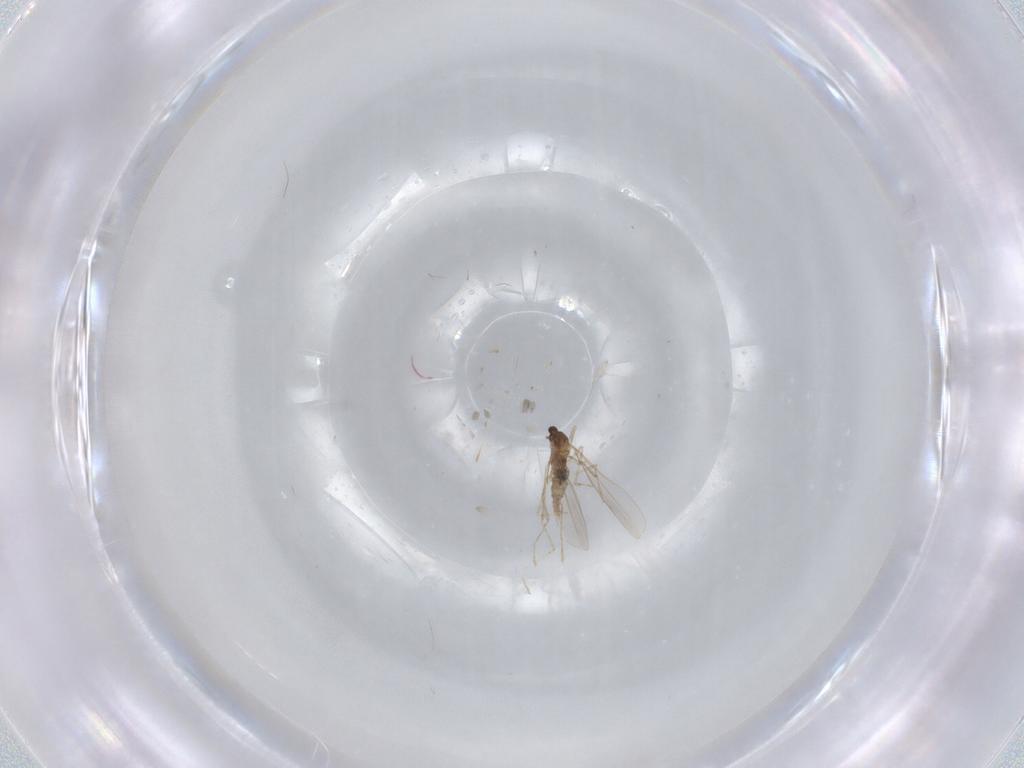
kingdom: Animalia
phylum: Arthropoda
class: Insecta
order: Diptera
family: Cecidomyiidae
